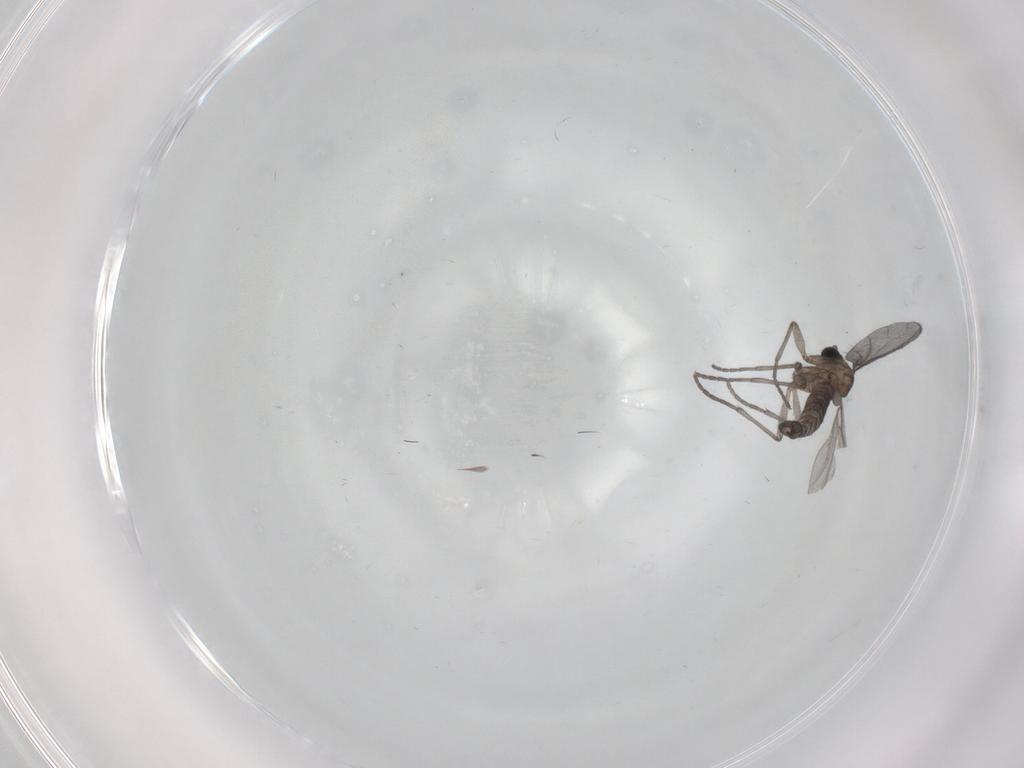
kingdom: Animalia
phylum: Arthropoda
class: Insecta
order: Diptera
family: Sciaridae
